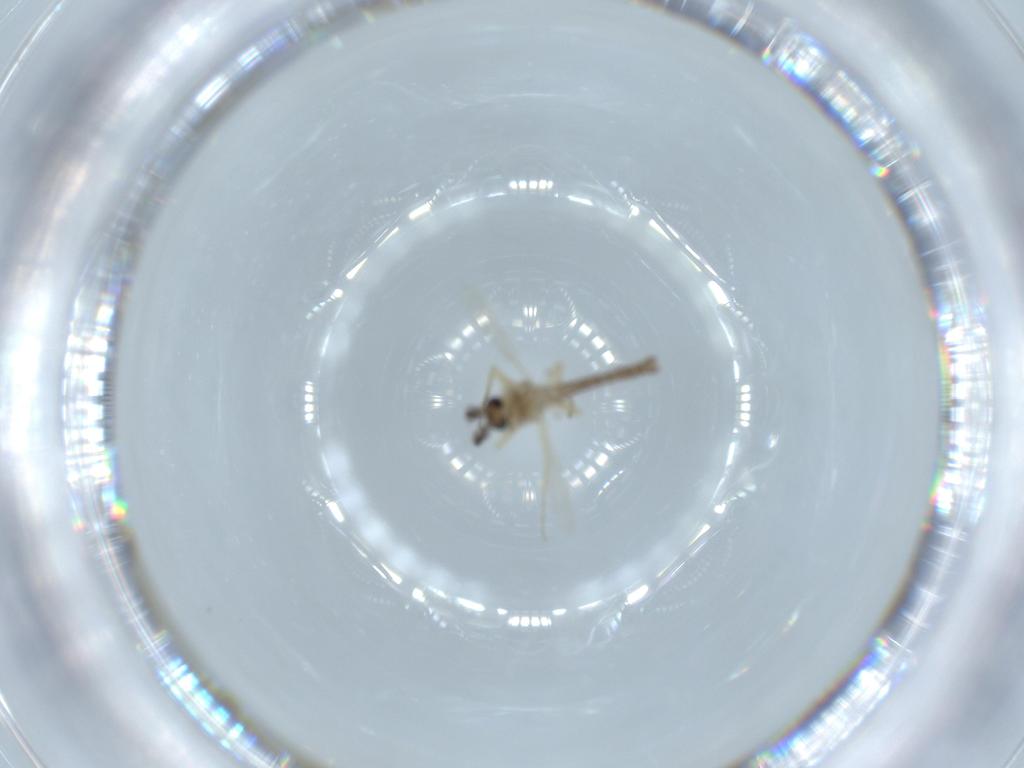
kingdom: Animalia
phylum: Arthropoda
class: Insecta
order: Diptera
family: Ceratopogonidae
